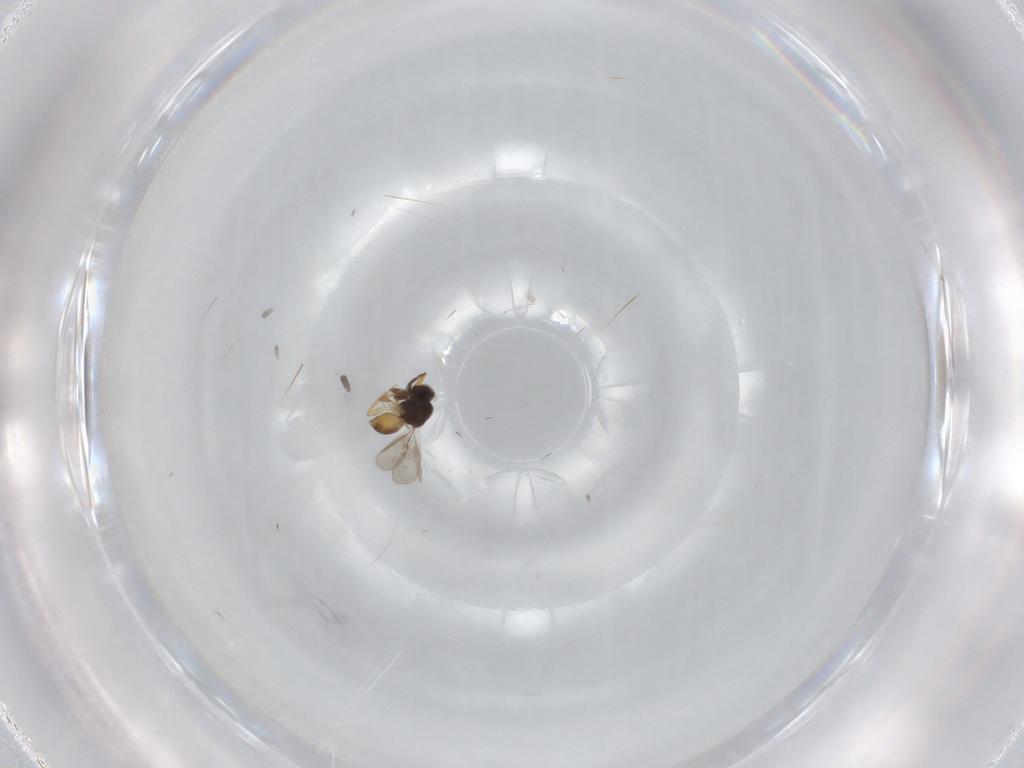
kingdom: Animalia
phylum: Arthropoda
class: Insecta
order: Hymenoptera
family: Ceraphronidae
